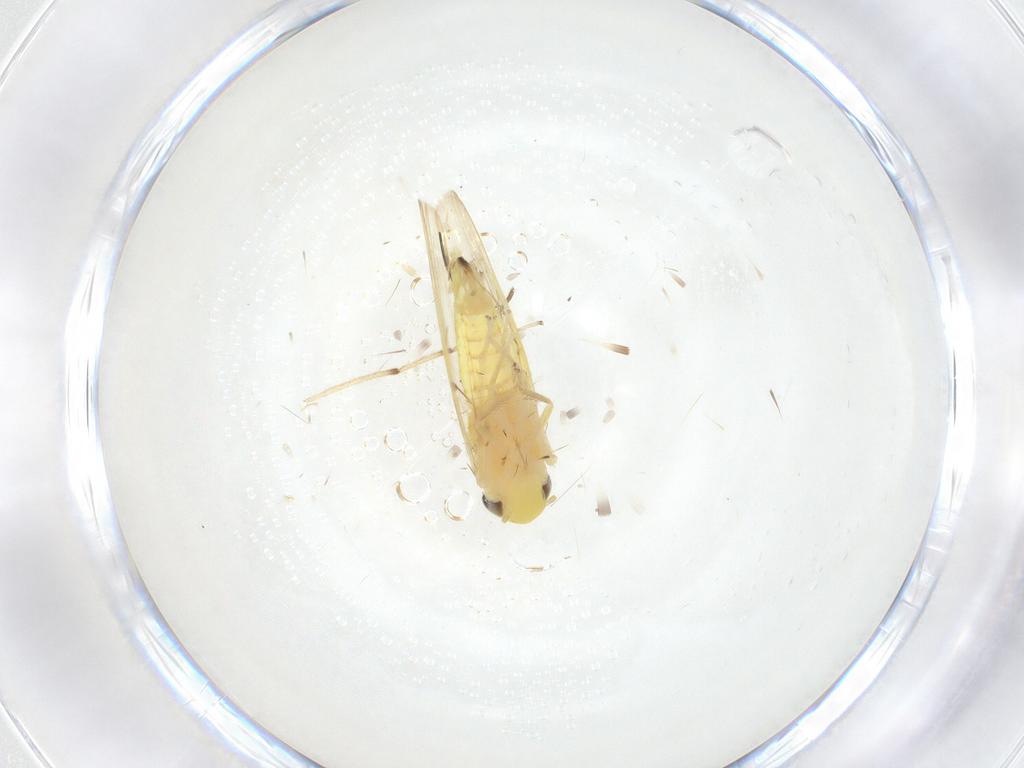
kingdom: Animalia
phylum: Arthropoda
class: Insecta
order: Hemiptera
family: Cicadellidae
